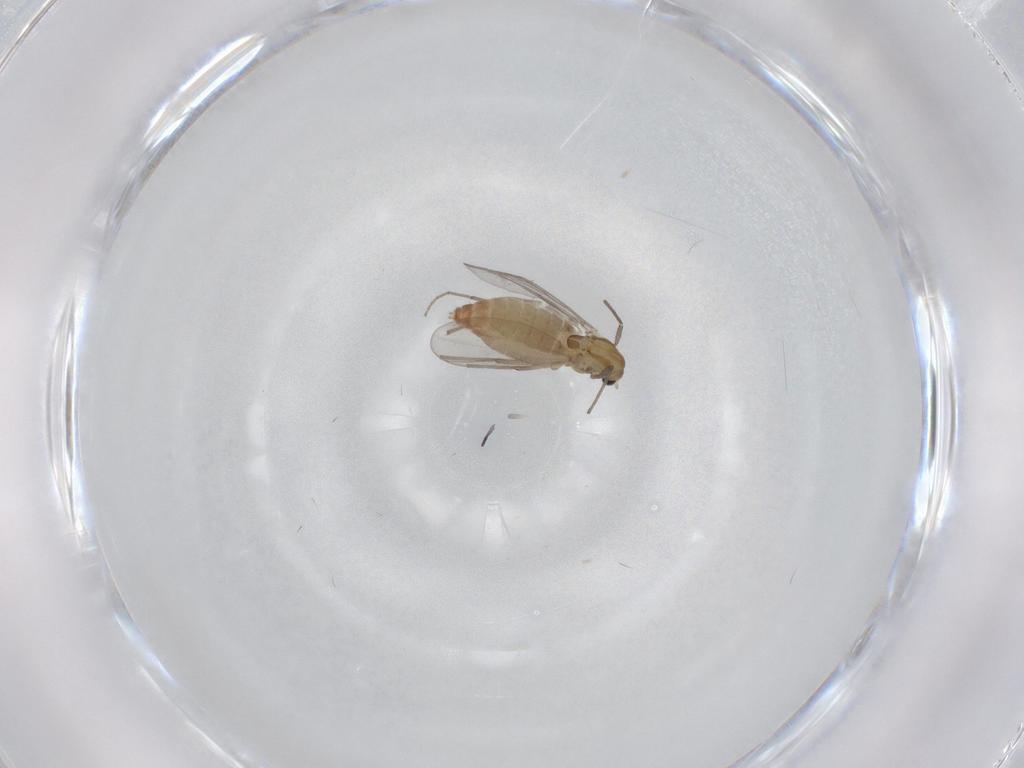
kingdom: Animalia
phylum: Arthropoda
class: Insecta
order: Diptera
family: Chironomidae
